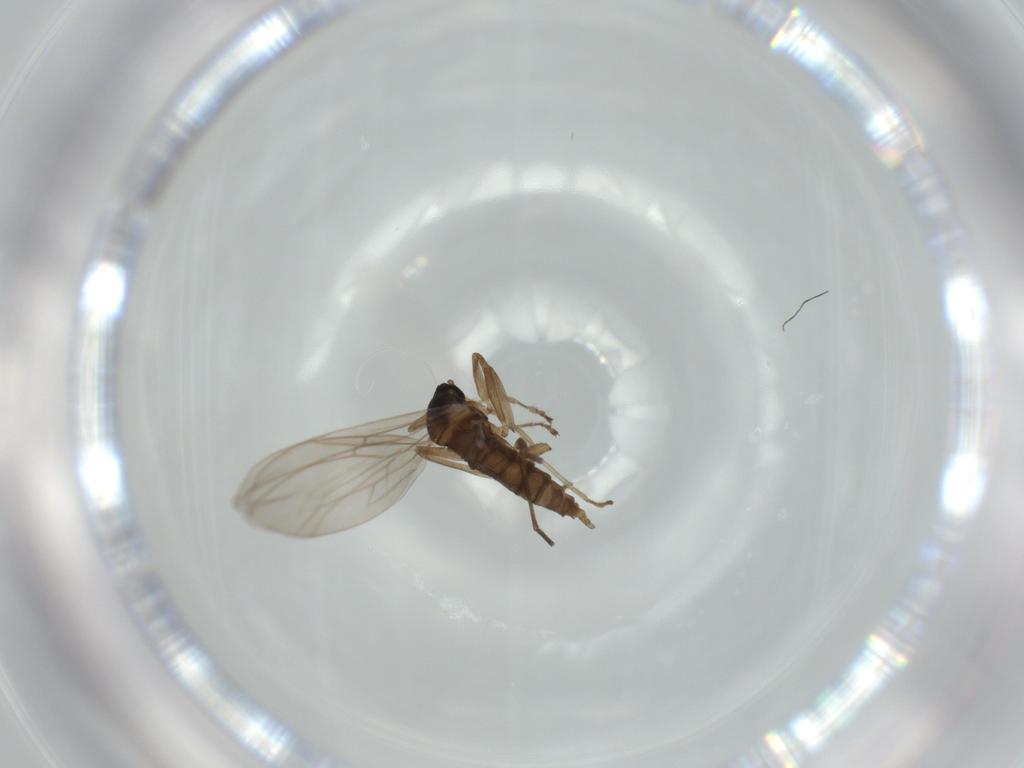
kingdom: Animalia
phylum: Arthropoda
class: Insecta
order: Diptera
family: Cecidomyiidae
